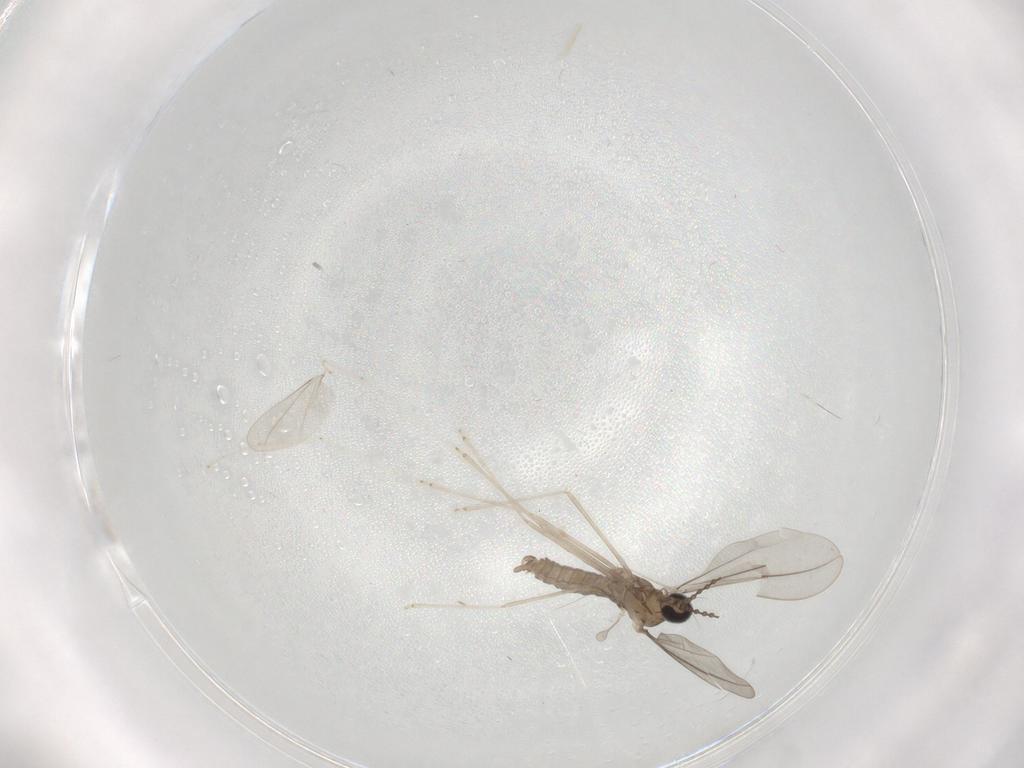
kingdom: Animalia
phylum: Arthropoda
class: Insecta
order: Diptera
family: Cecidomyiidae
